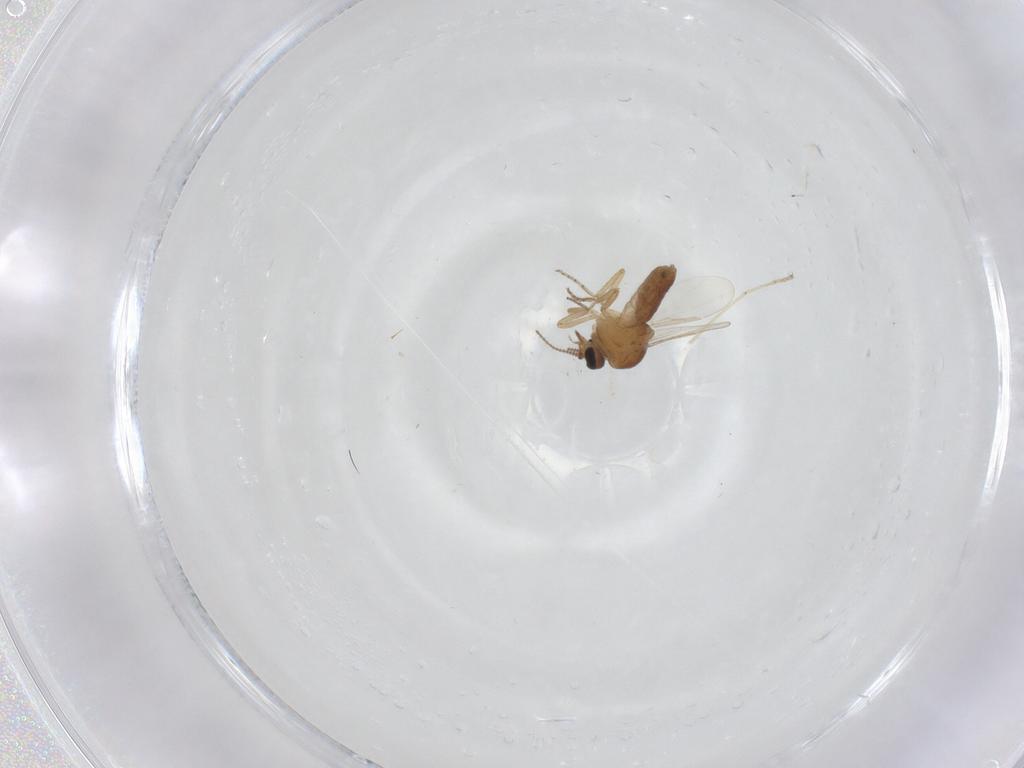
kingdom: Animalia
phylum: Arthropoda
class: Insecta
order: Diptera
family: Ceratopogonidae
